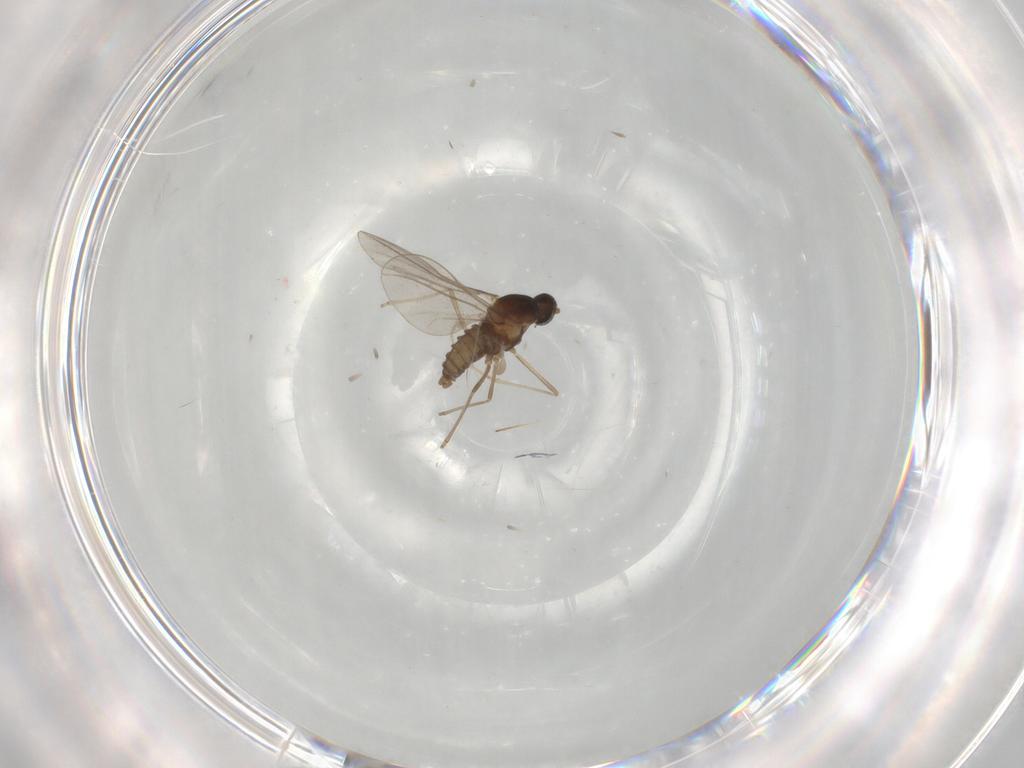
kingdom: Animalia
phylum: Arthropoda
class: Insecta
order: Diptera
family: Cecidomyiidae
